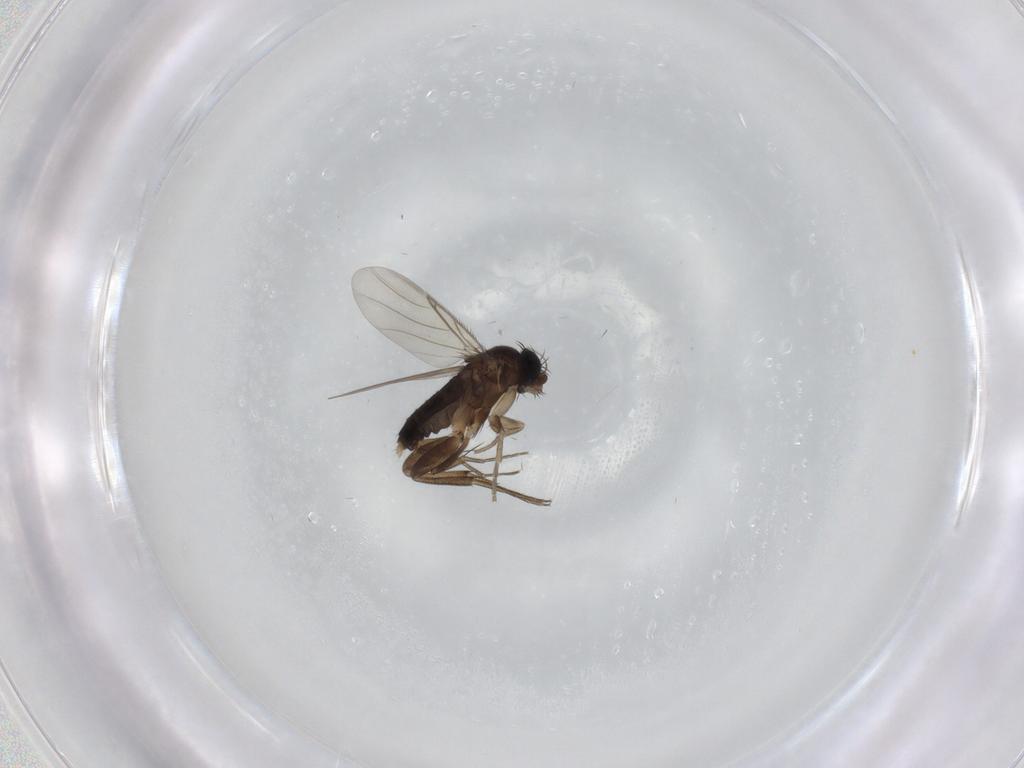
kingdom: Animalia
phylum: Arthropoda
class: Insecta
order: Diptera
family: Phoridae
